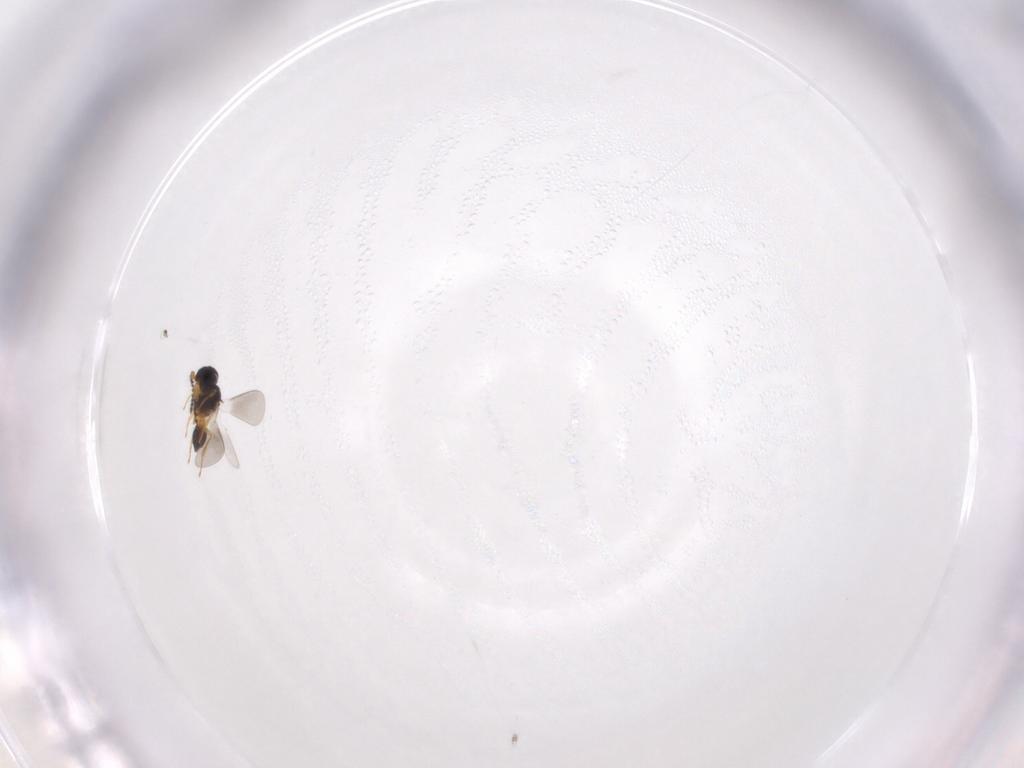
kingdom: Animalia
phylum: Arthropoda
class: Insecta
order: Hymenoptera
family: Platygastridae
